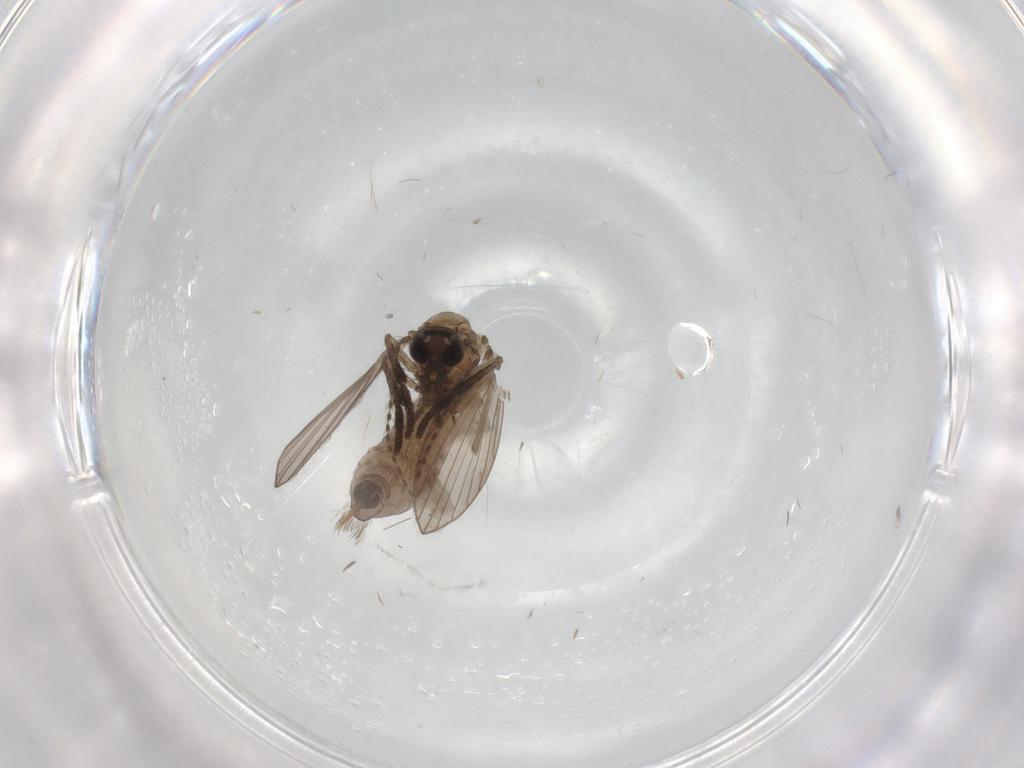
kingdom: Animalia
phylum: Arthropoda
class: Insecta
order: Diptera
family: Psychodidae
